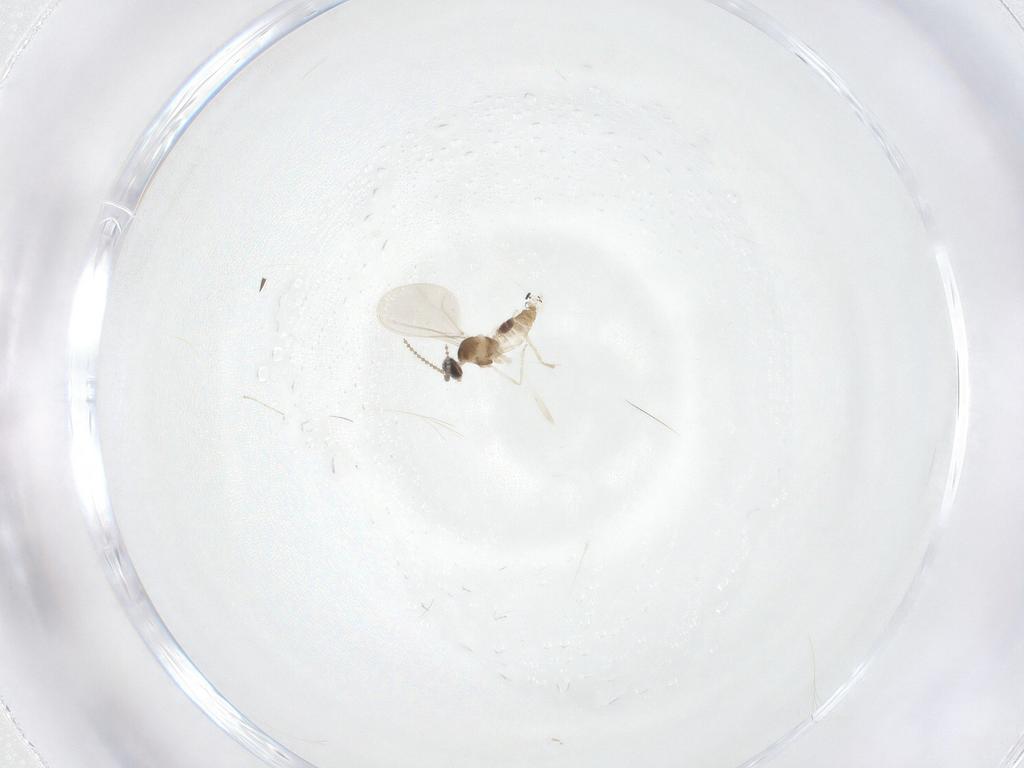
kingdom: Animalia
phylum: Arthropoda
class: Insecta
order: Diptera
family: Cecidomyiidae
